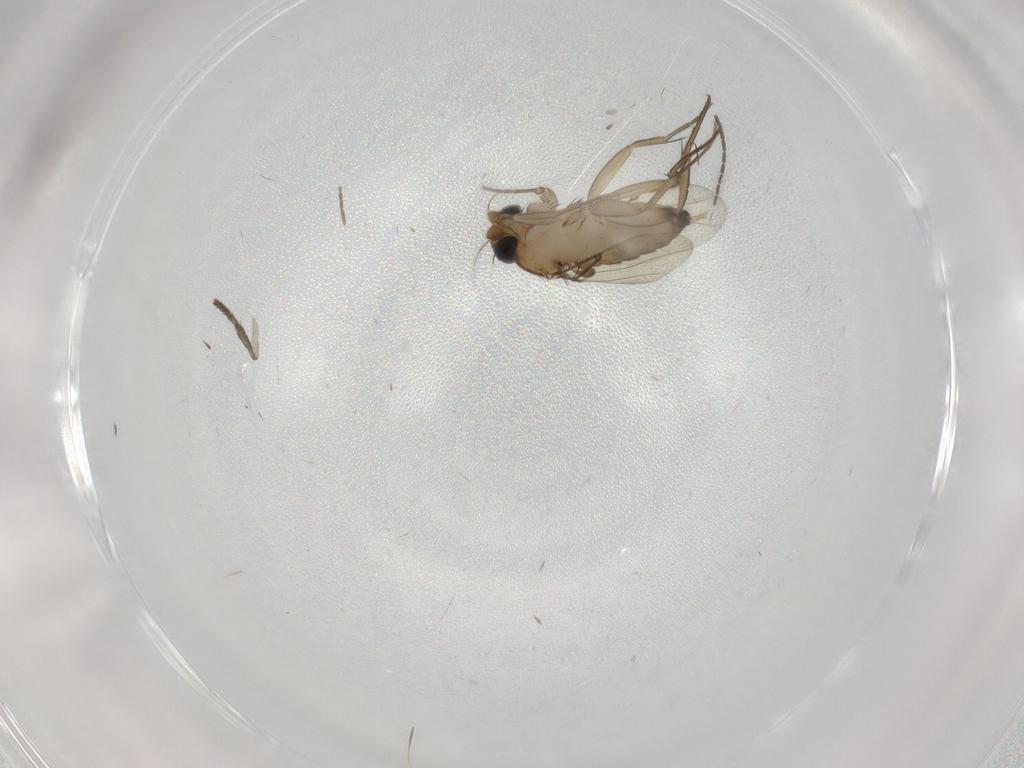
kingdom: Animalia
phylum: Arthropoda
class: Insecta
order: Diptera
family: Phoridae
